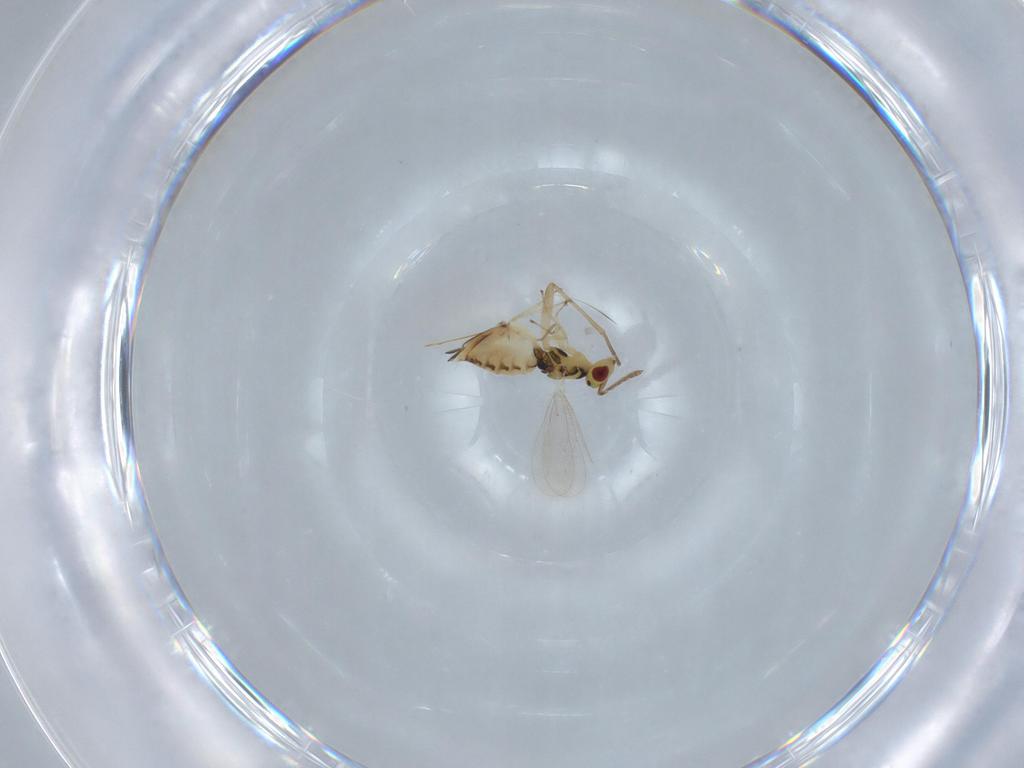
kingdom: Animalia
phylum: Arthropoda
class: Insecta
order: Hymenoptera
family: Eulophidae
